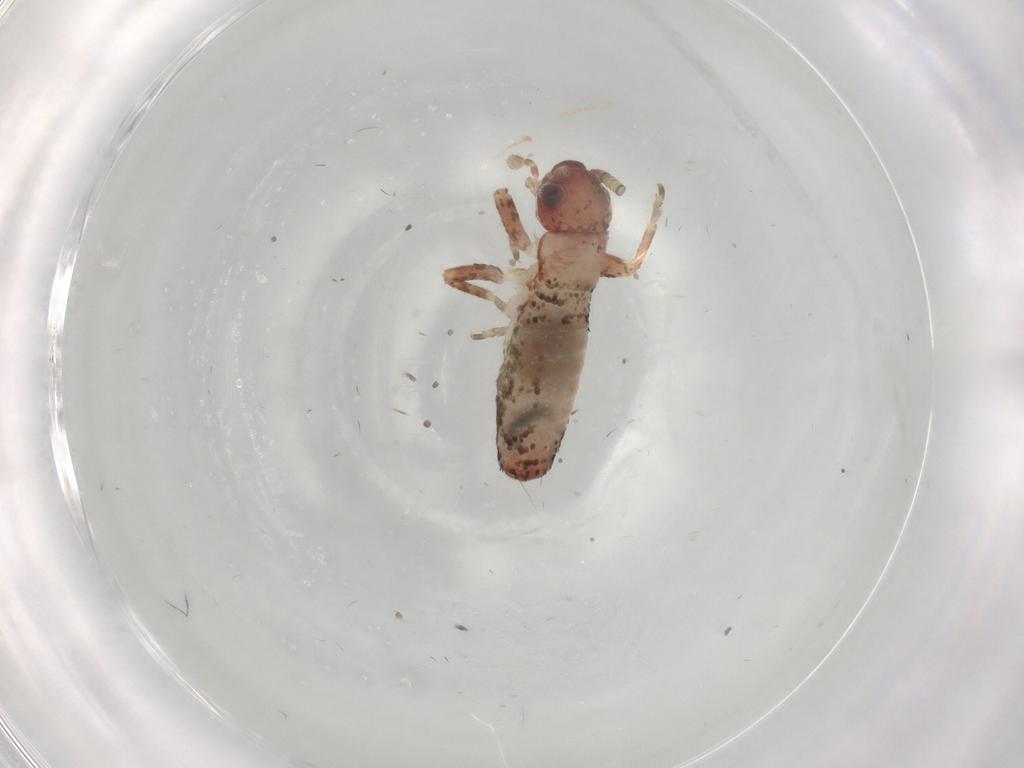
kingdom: Animalia
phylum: Arthropoda
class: Insecta
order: Orthoptera
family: Mogoplistidae
